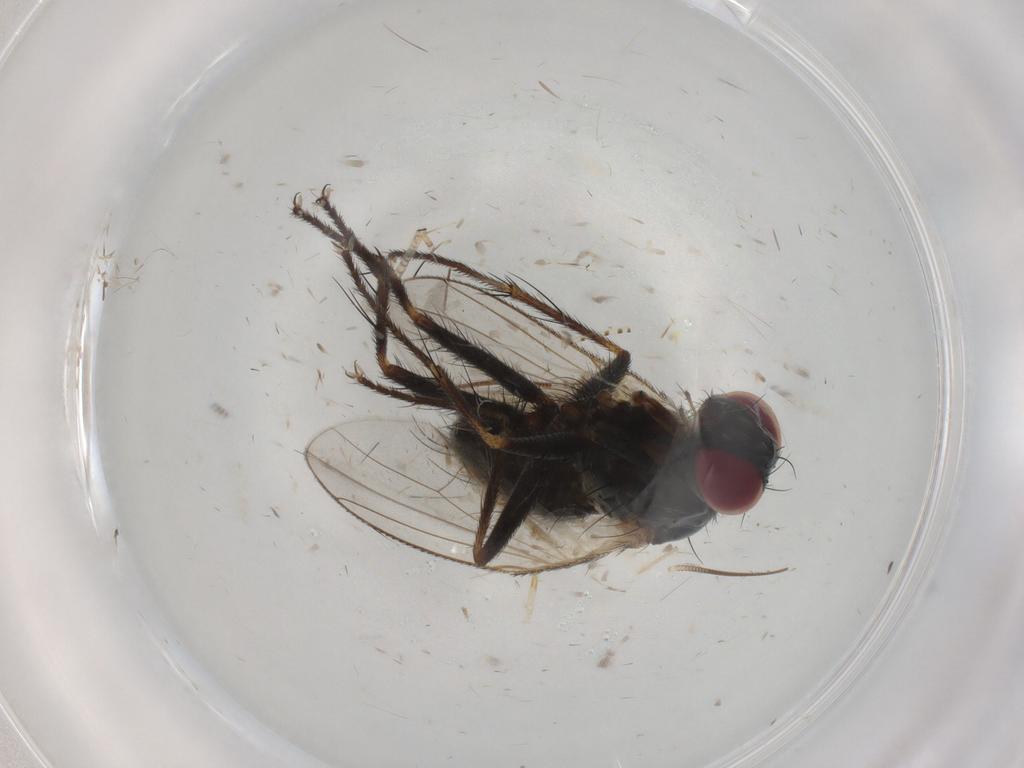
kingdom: Animalia
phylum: Arthropoda
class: Insecta
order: Diptera
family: Muscidae
